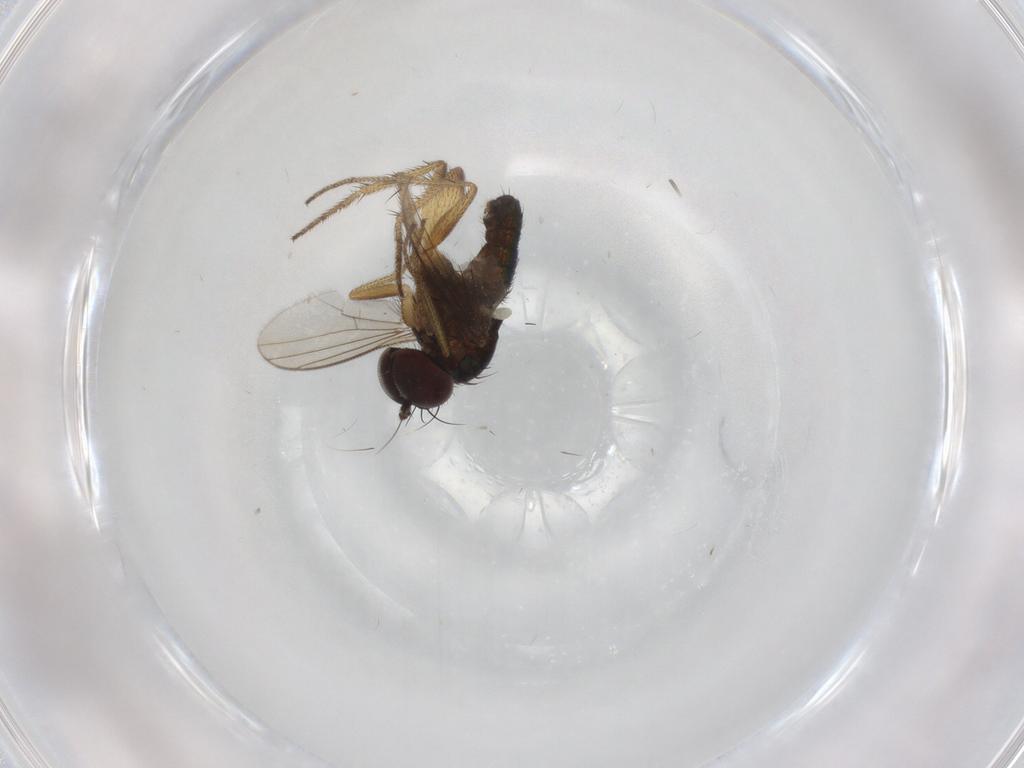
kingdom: Animalia
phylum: Arthropoda
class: Insecta
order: Diptera
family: Dolichopodidae
